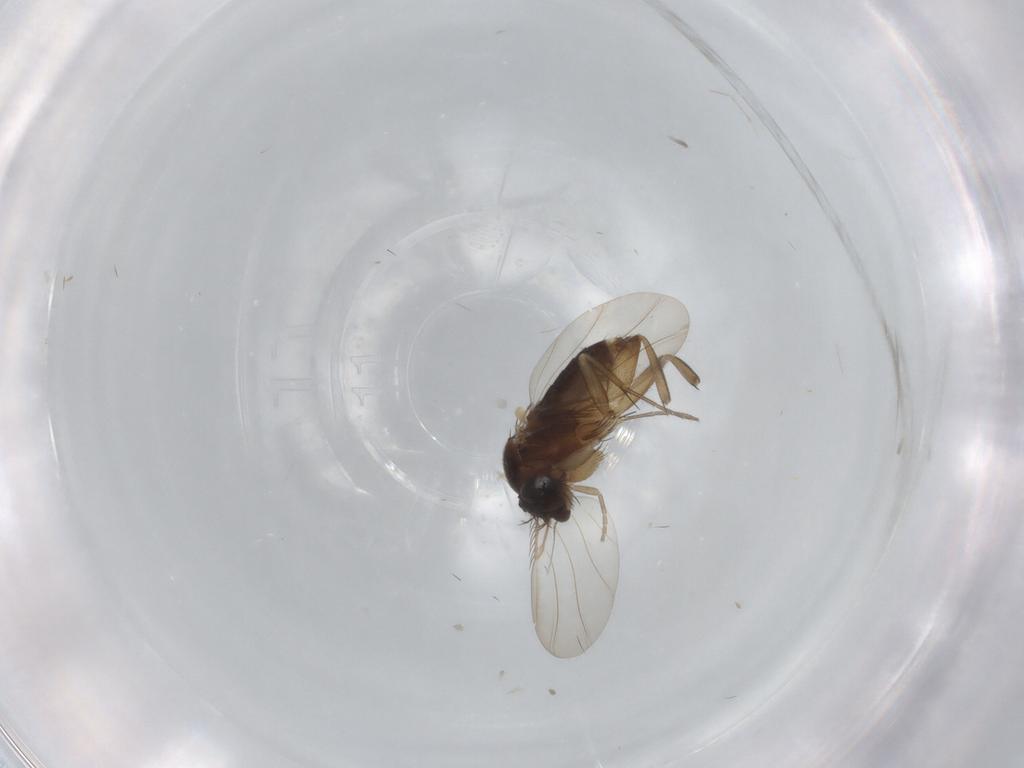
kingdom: Animalia
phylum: Arthropoda
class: Insecta
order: Diptera
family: Phoridae
